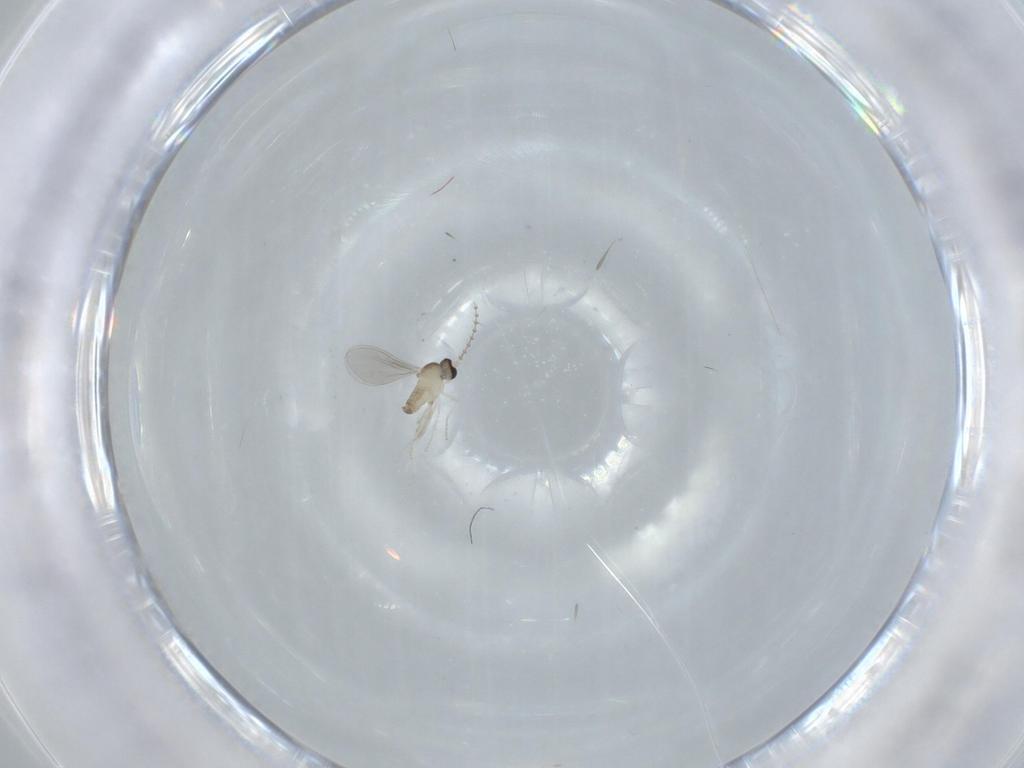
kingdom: Animalia
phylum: Arthropoda
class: Insecta
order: Diptera
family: Cecidomyiidae
